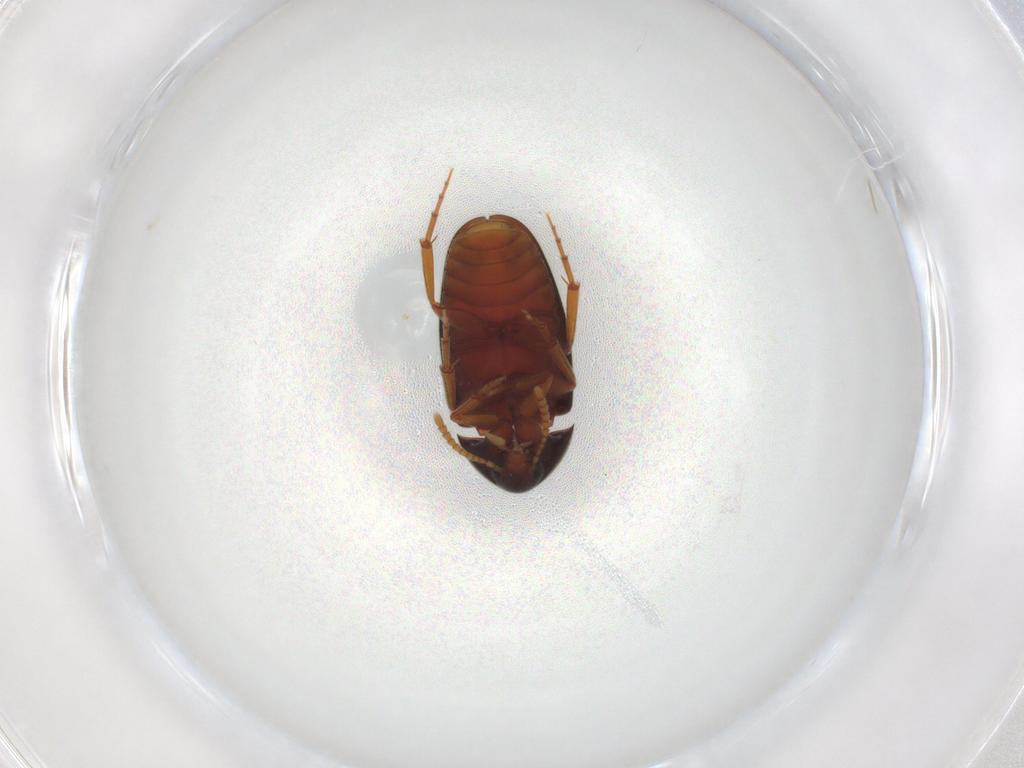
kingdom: Animalia
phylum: Arthropoda
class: Insecta
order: Coleoptera
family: Scraptiidae
